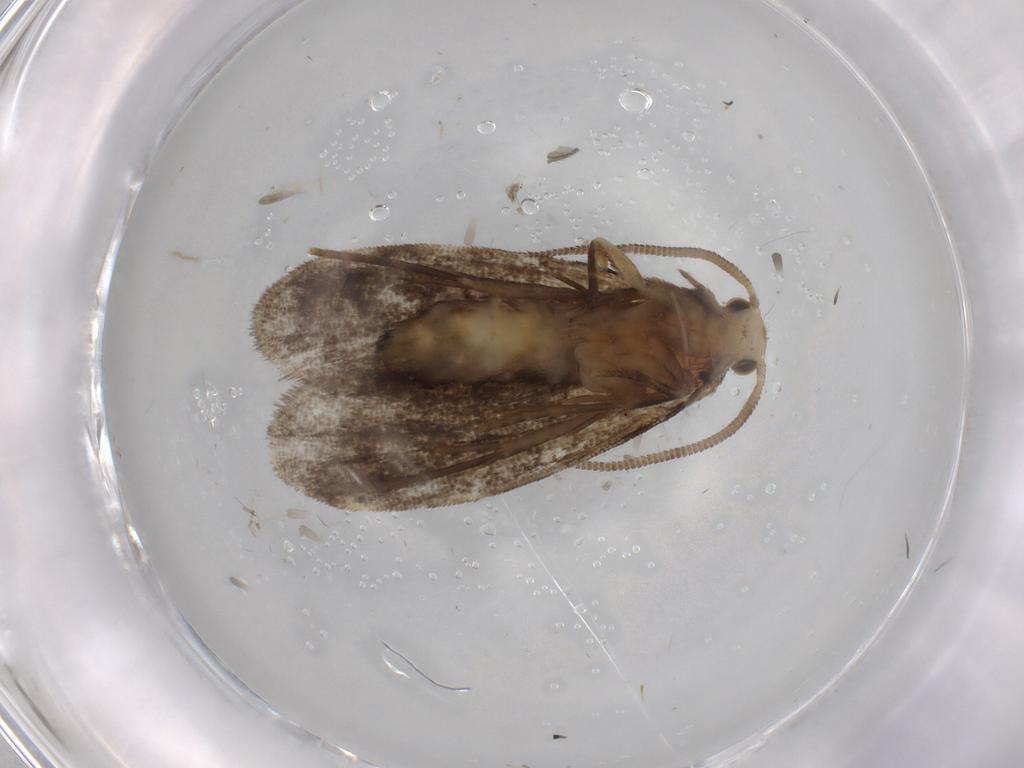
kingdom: Animalia
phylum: Arthropoda
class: Insecta
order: Lepidoptera
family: Dryadaulidae
